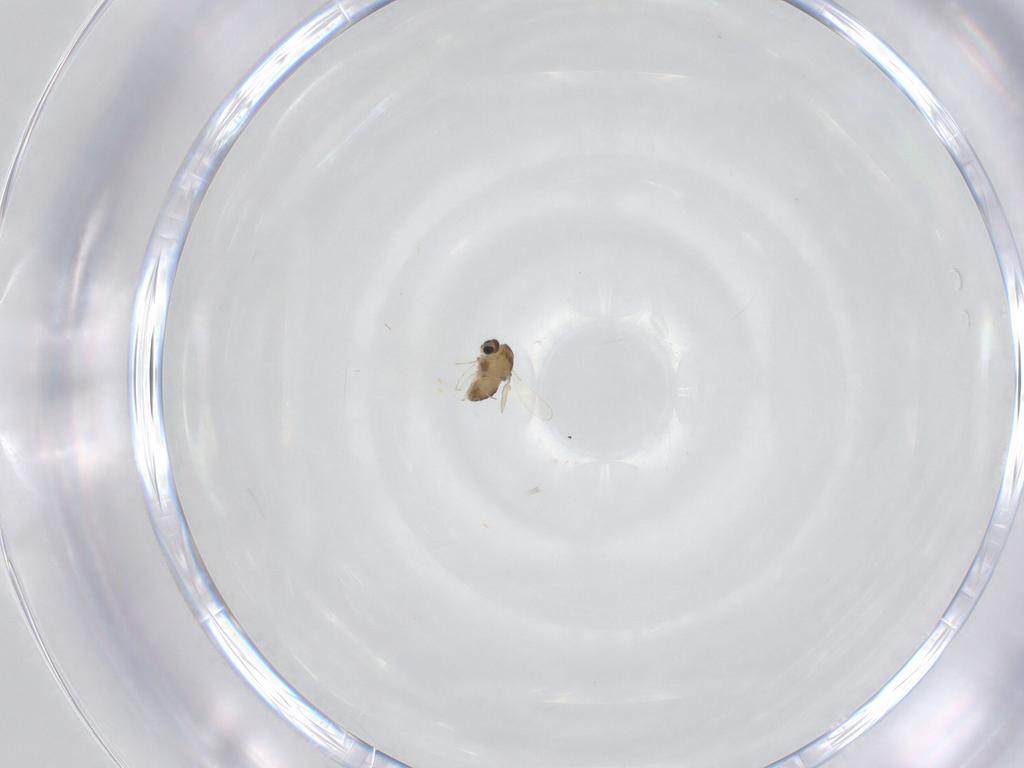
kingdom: Animalia
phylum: Arthropoda
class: Insecta
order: Diptera
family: Chironomidae
